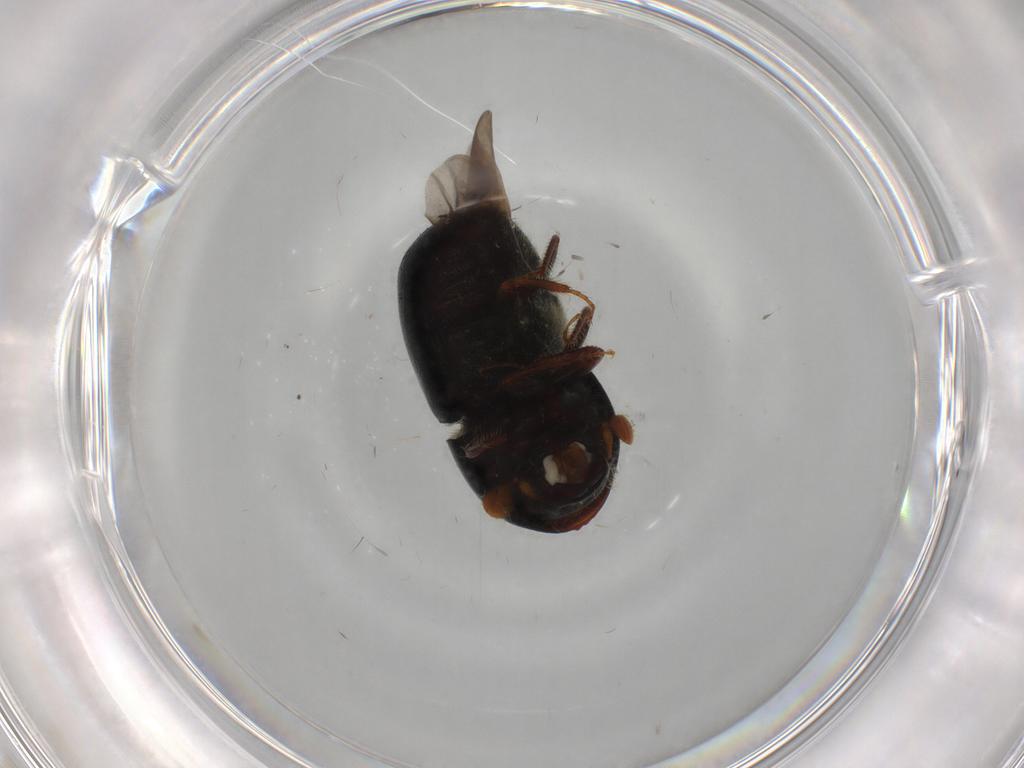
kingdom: Animalia
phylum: Arthropoda
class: Insecta
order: Coleoptera
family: Curculionidae
